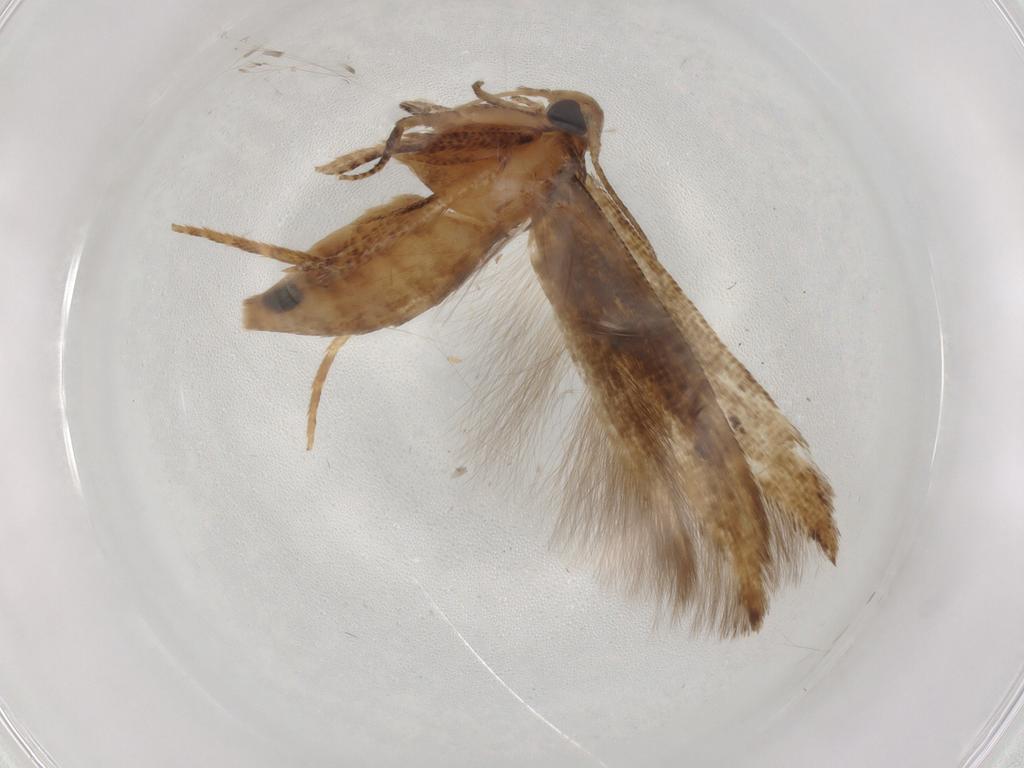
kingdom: Animalia
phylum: Arthropoda
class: Insecta
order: Lepidoptera
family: Cosmopterigidae
